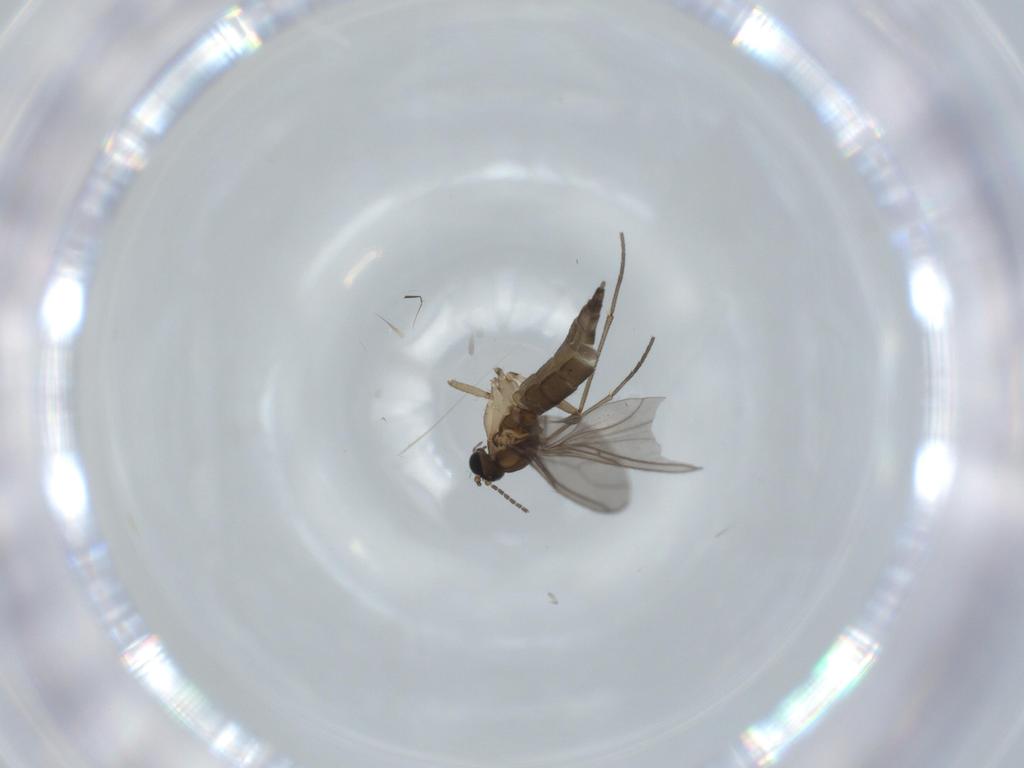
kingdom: Animalia
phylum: Arthropoda
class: Insecta
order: Diptera
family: Sciaridae
